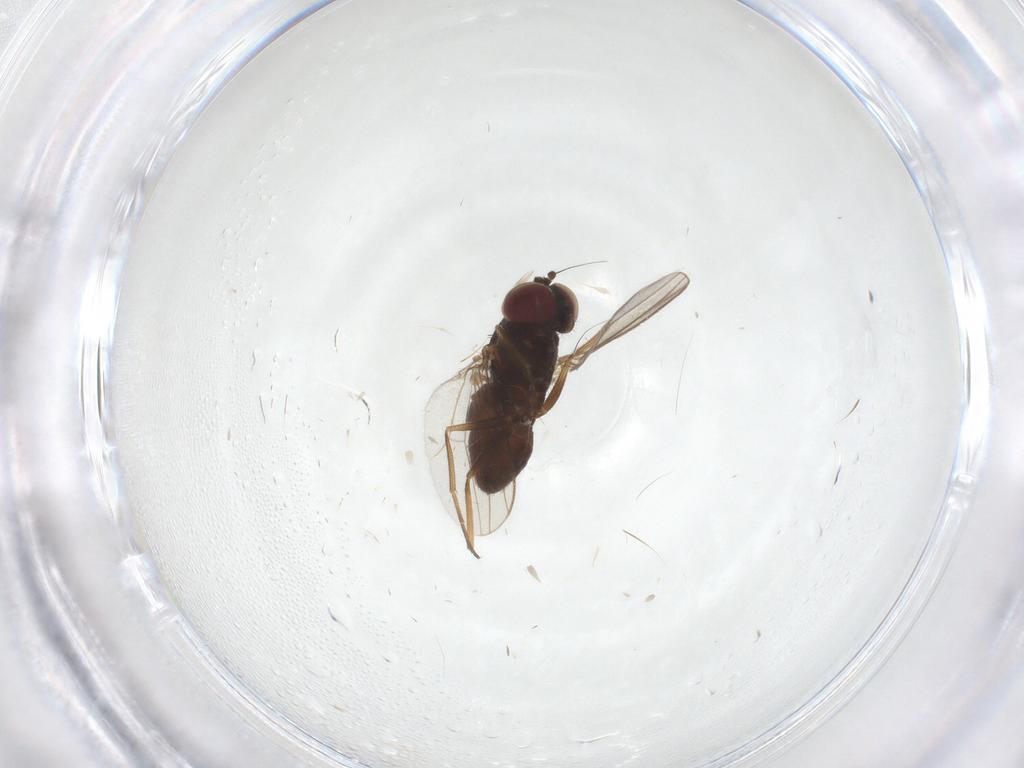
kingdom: Animalia
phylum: Arthropoda
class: Insecta
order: Diptera
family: Dolichopodidae
